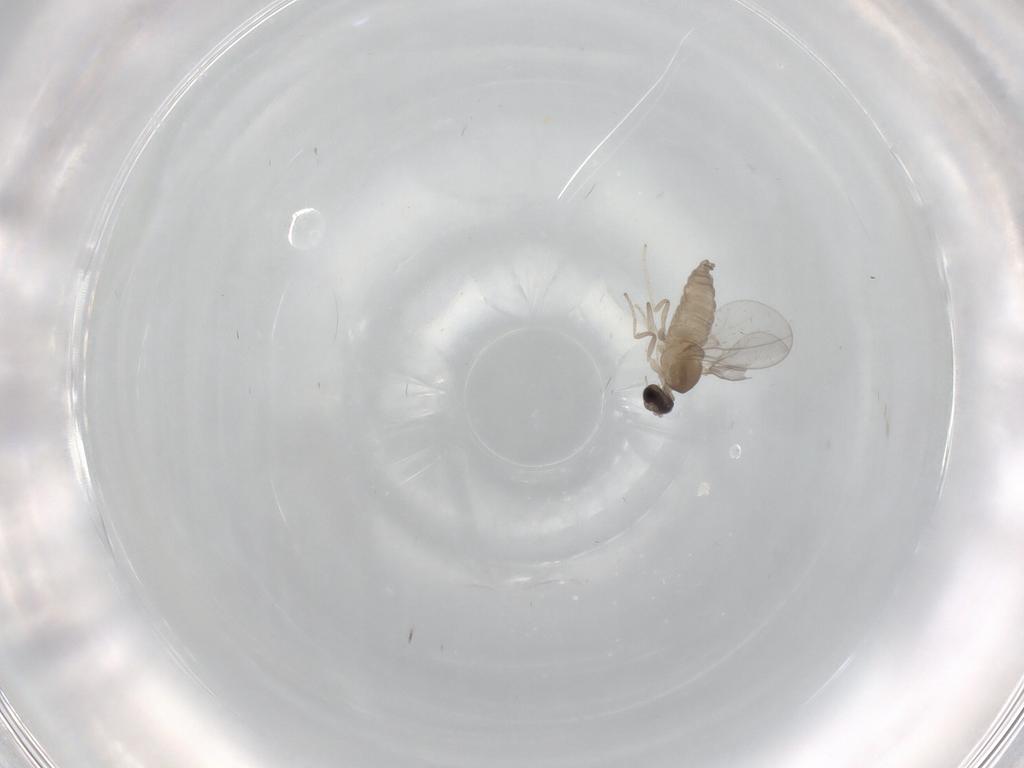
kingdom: Animalia
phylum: Arthropoda
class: Insecta
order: Diptera
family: Cecidomyiidae
